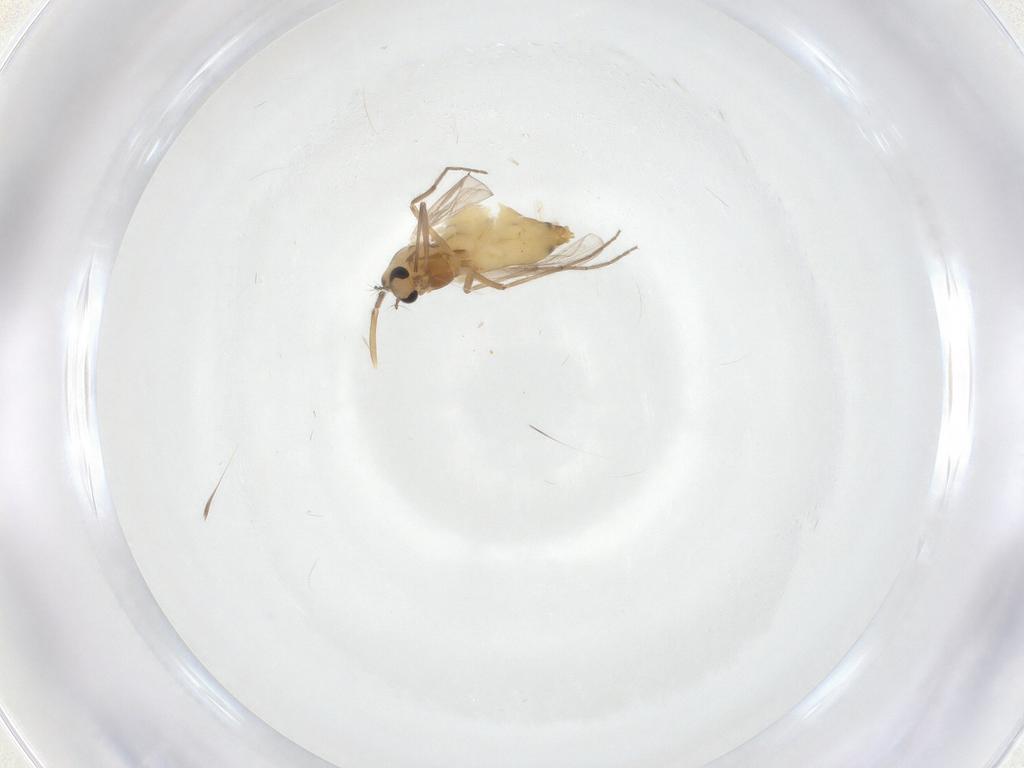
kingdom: Animalia
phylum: Arthropoda
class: Insecta
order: Diptera
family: Chironomidae
